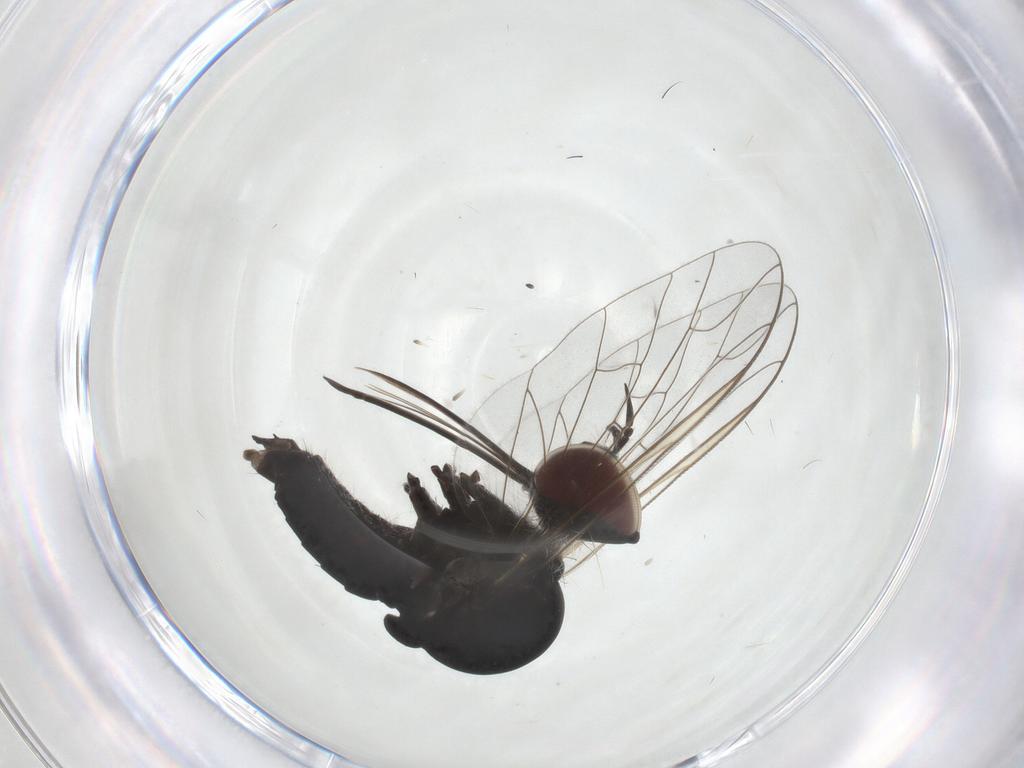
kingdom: Animalia
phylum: Arthropoda
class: Insecta
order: Diptera
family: Bombyliidae
